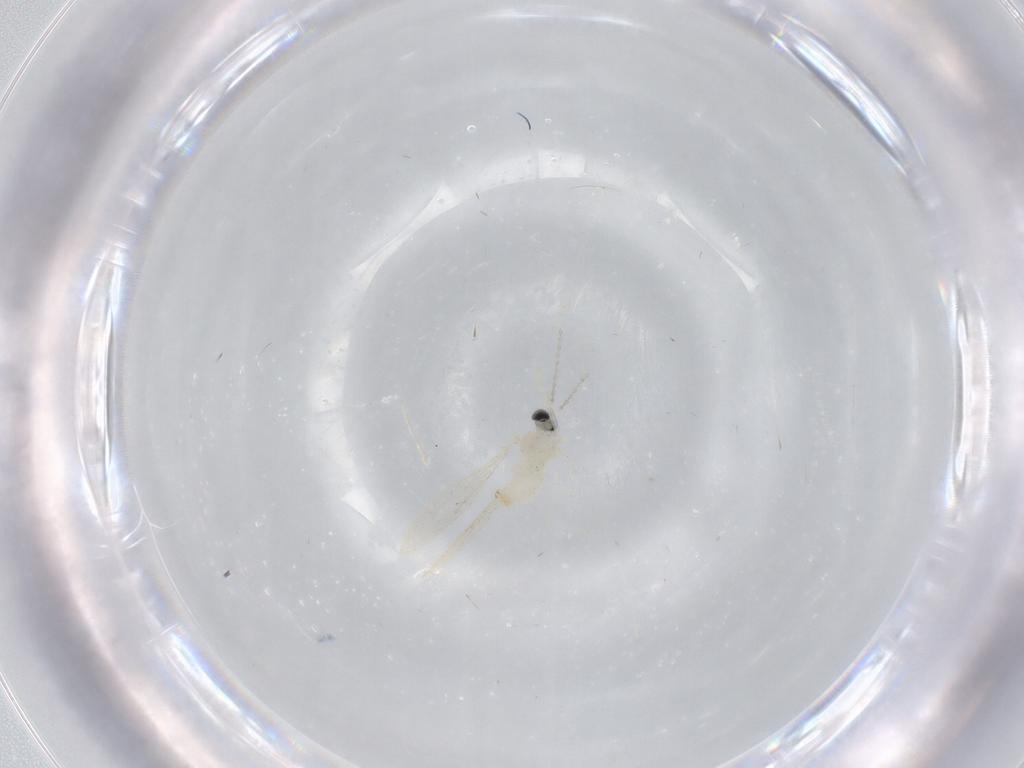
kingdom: Animalia
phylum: Arthropoda
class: Insecta
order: Diptera
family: Cecidomyiidae
